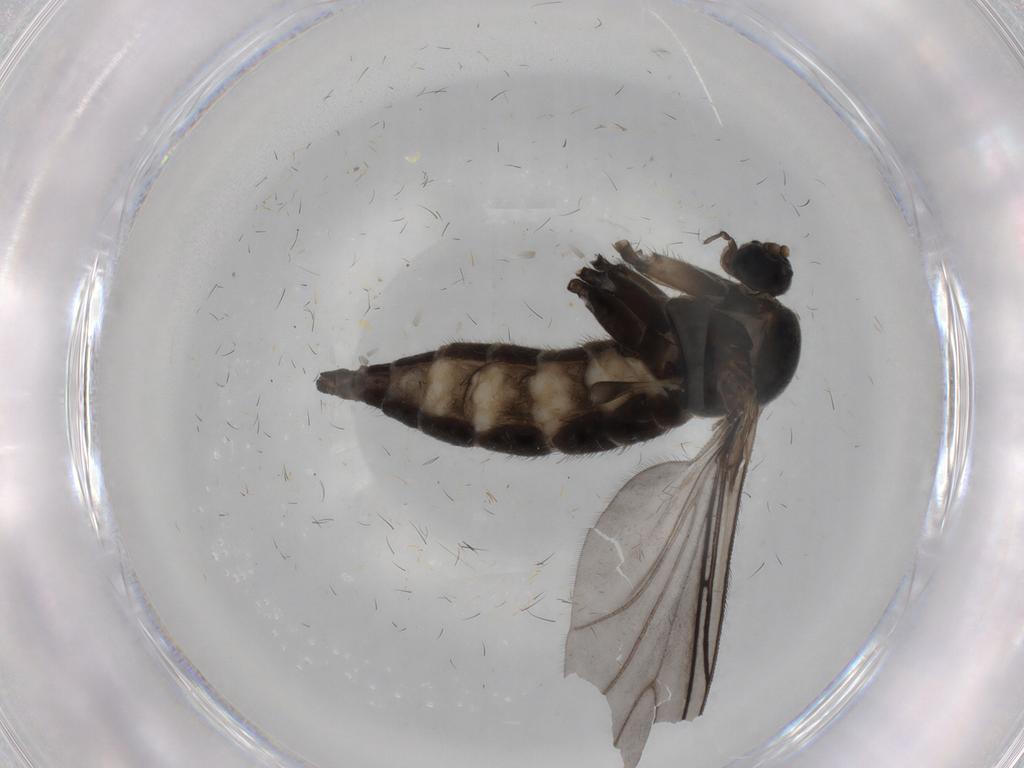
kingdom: Animalia
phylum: Arthropoda
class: Insecta
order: Diptera
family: Sciaridae
